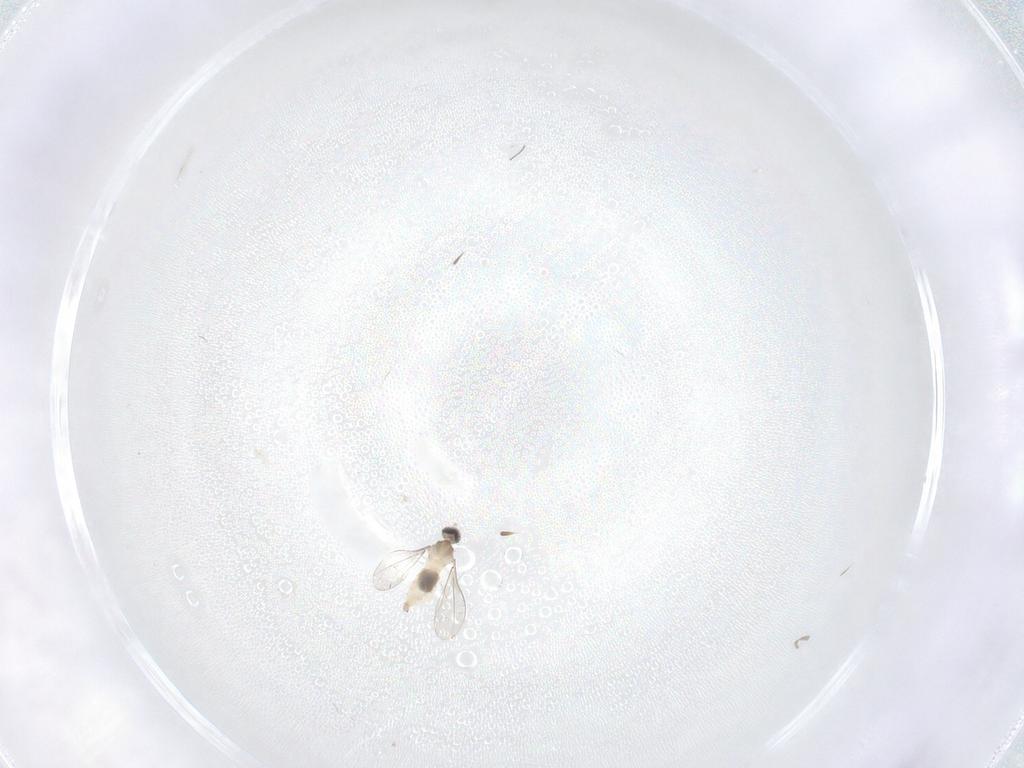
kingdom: Animalia
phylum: Arthropoda
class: Insecta
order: Diptera
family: Cecidomyiidae
